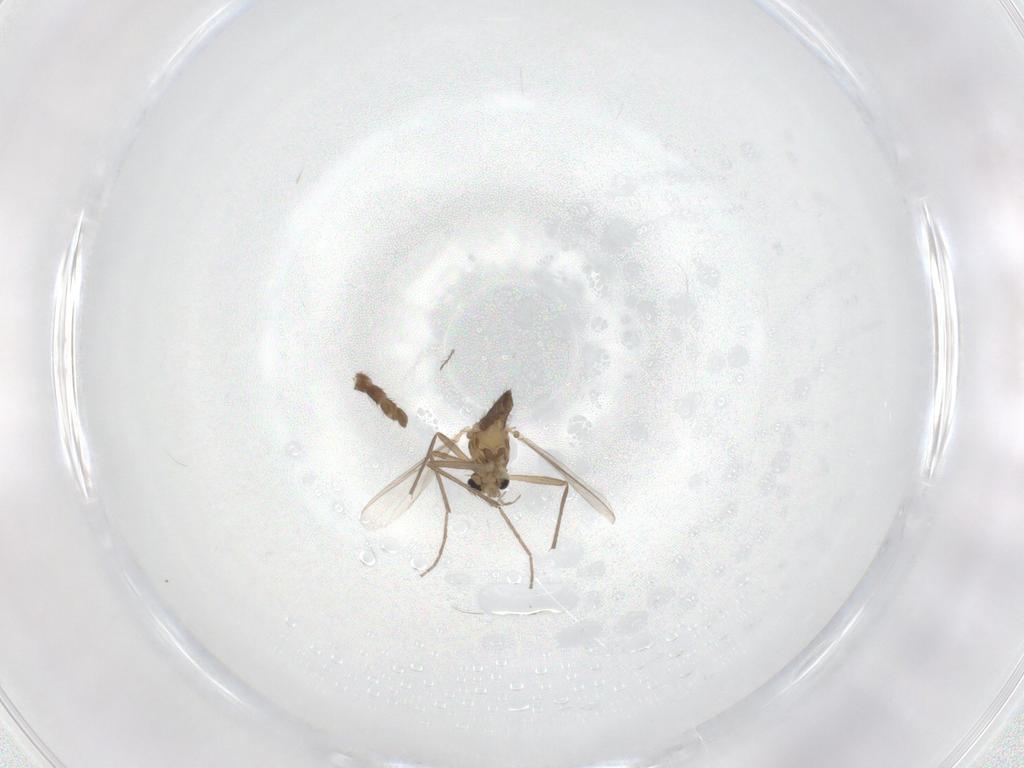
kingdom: Animalia
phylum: Arthropoda
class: Insecta
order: Diptera
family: Chironomidae
